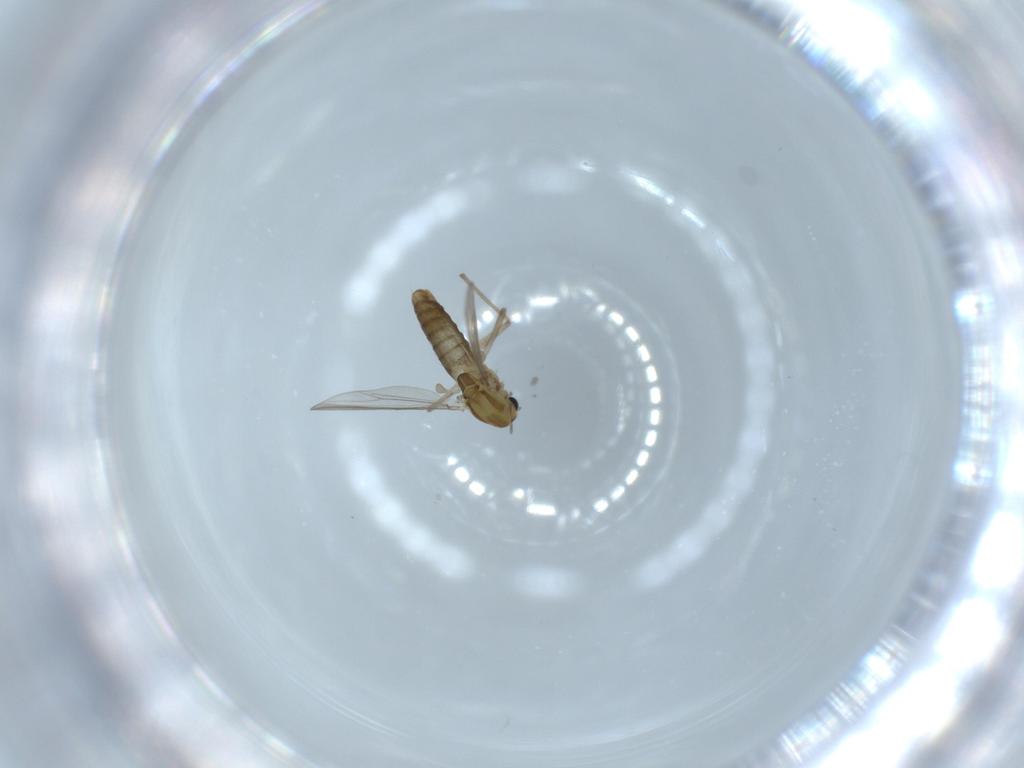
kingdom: Animalia
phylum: Arthropoda
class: Insecta
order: Diptera
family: Chironomidae
